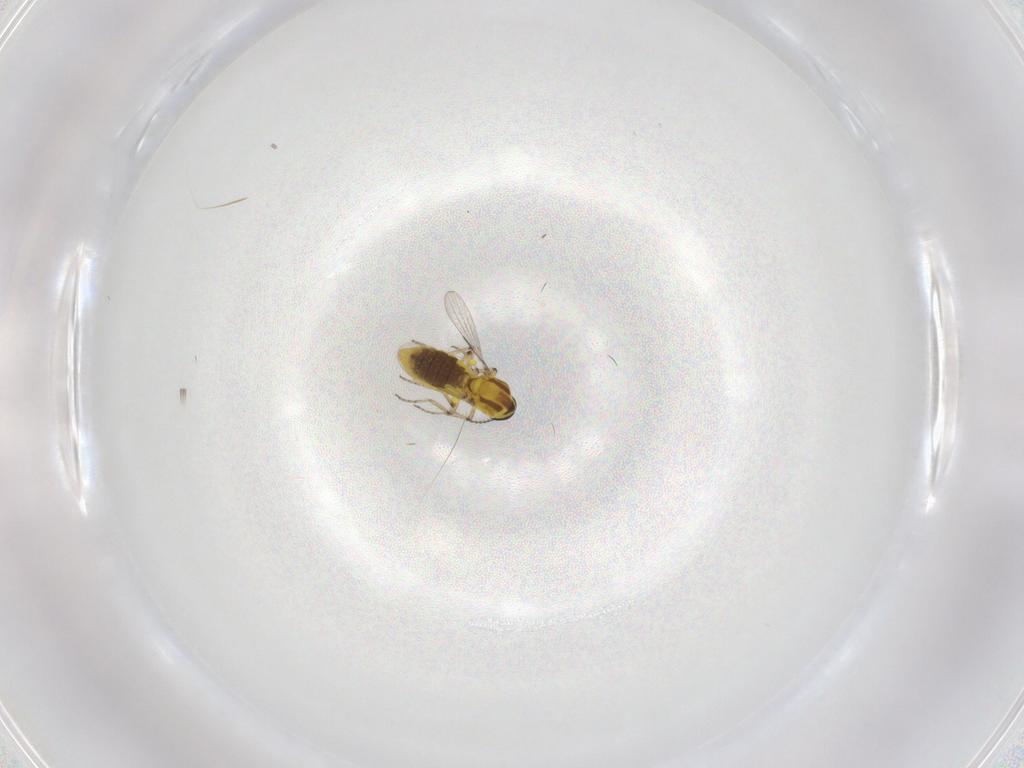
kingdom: Animalia
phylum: Arthropoda
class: Insecta
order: Diptera
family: Ceratopogonidae
